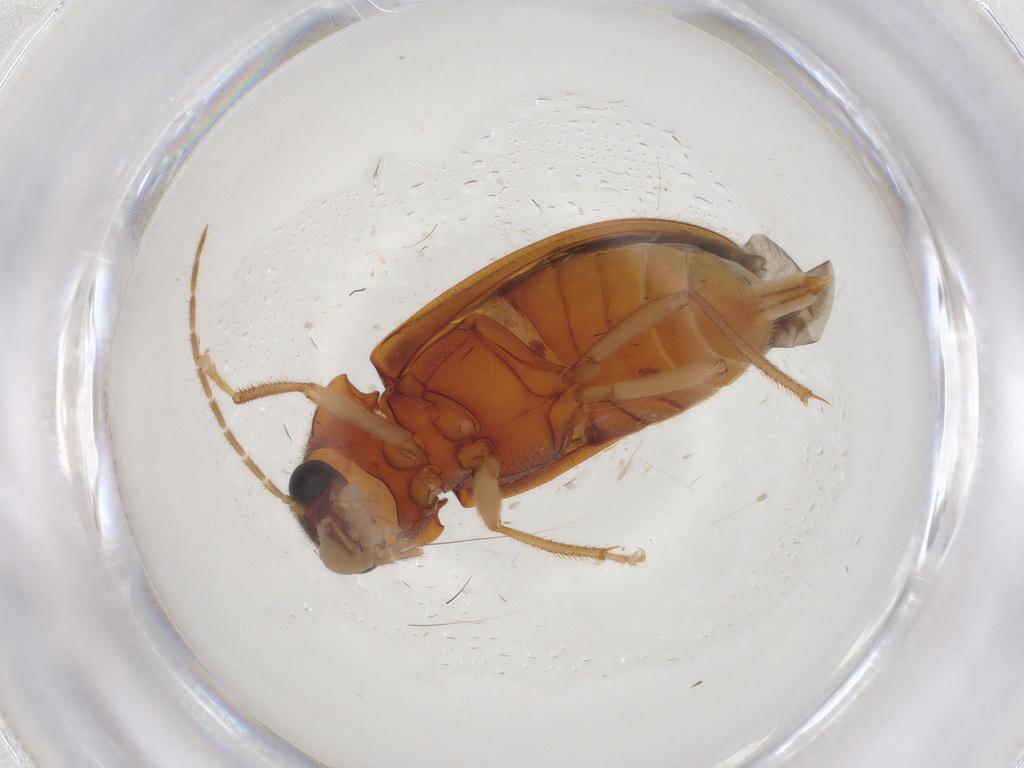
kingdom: Animalia
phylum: Arthropoda
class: Insecta
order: Coleoptera
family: Ptilodactylidae
